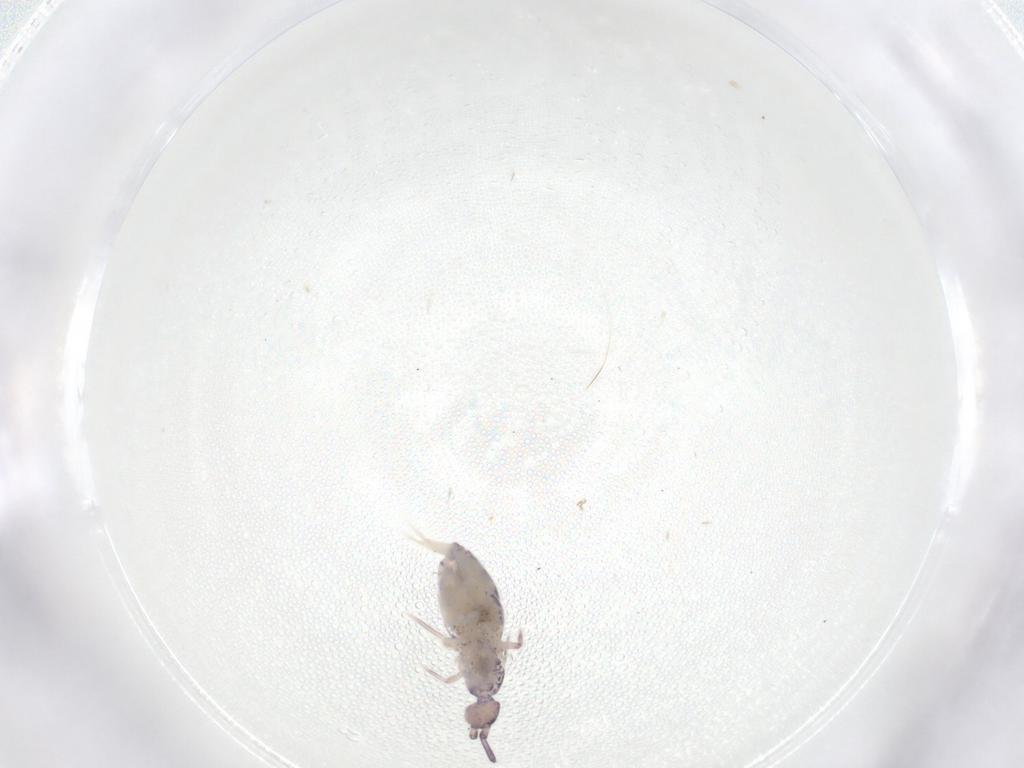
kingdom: Animalia
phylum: Arthropoda
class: Collembola
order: Entomobryomorpha
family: Entomobryidae
